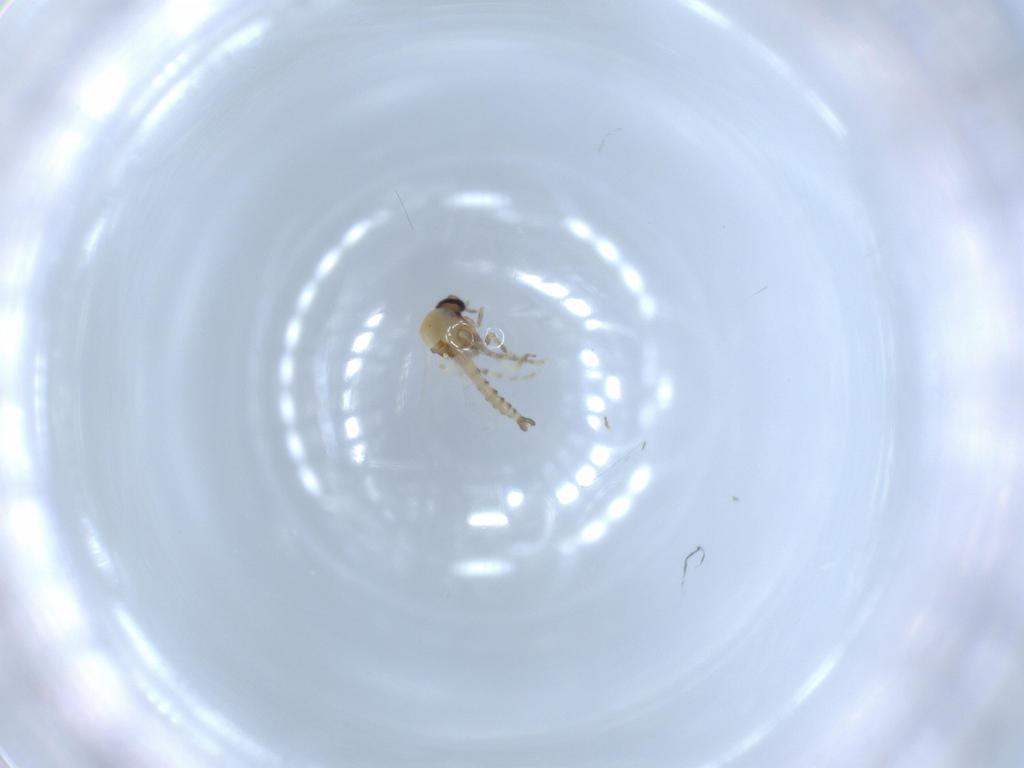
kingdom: Animalia
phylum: Arthropoda
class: Insecta
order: Diptera
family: Ceratopogonidae
